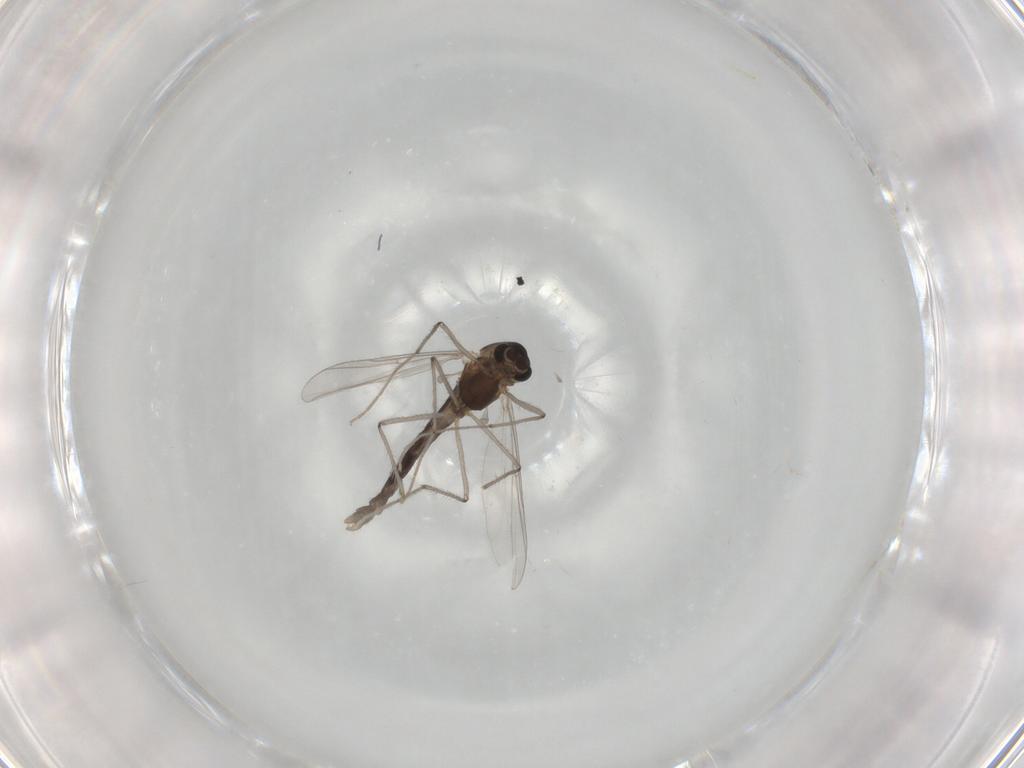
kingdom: Animalia
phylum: Arthropoda
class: Insecta
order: Diptera
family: Chironomidae
